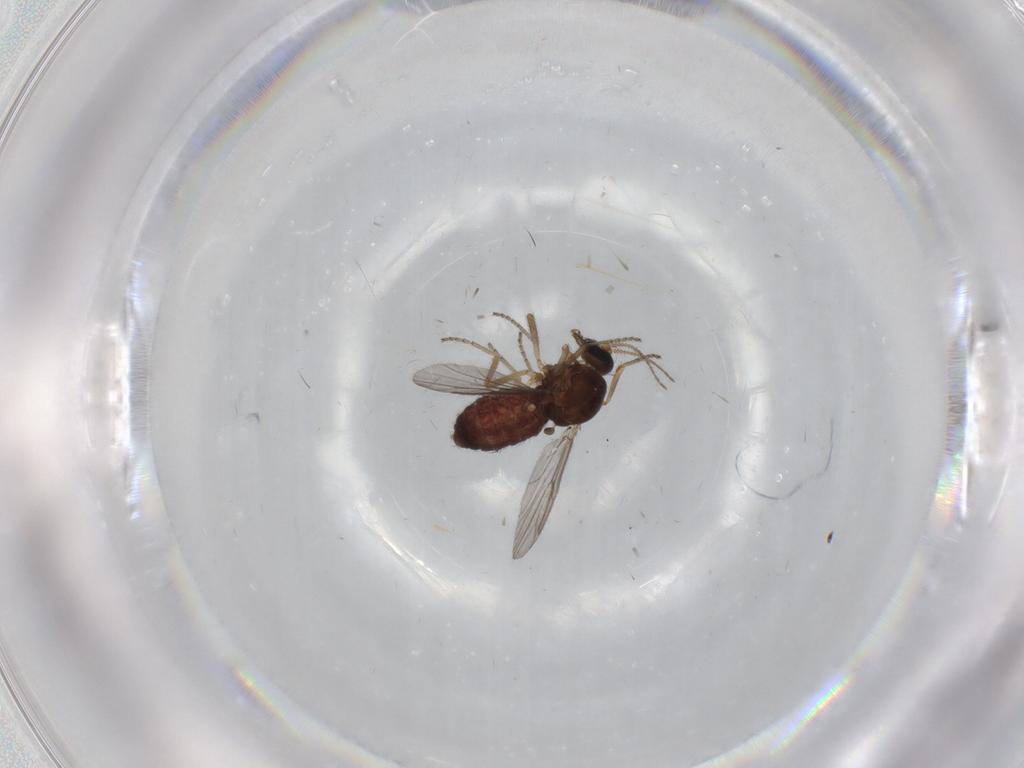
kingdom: Animalia
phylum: Arthropoda
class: Insecta
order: Diptera
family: Ceratopogonidae
